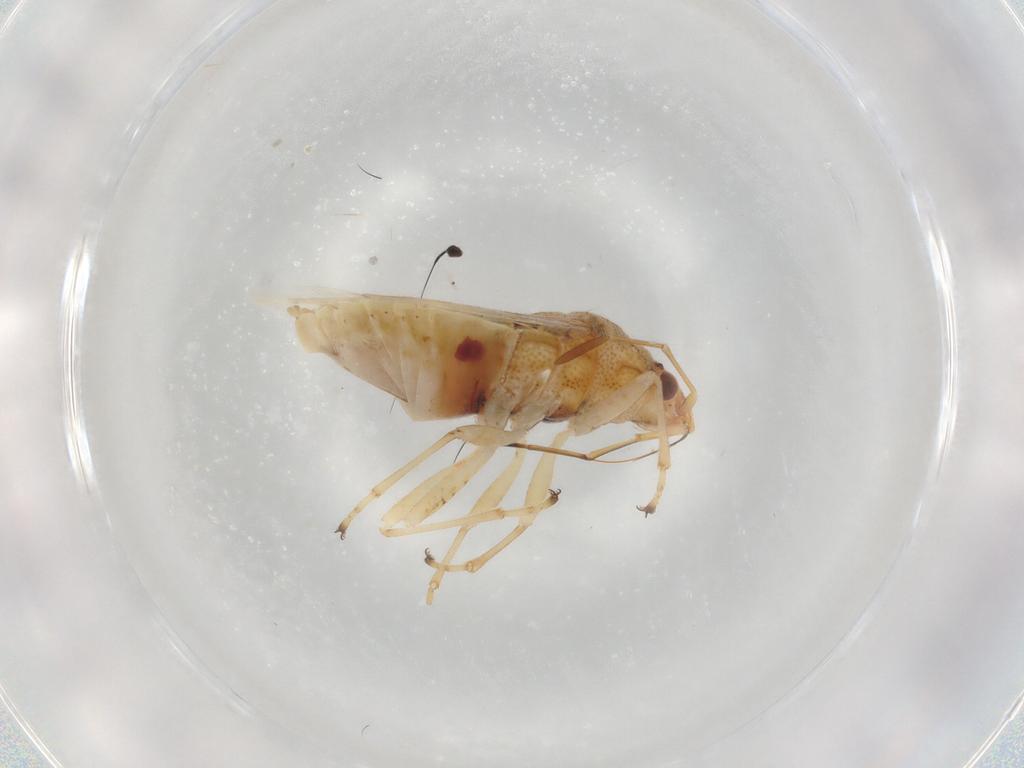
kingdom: Animalia
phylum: Arthropoda
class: Insecta
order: Hemiptera
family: Lygaeidae
